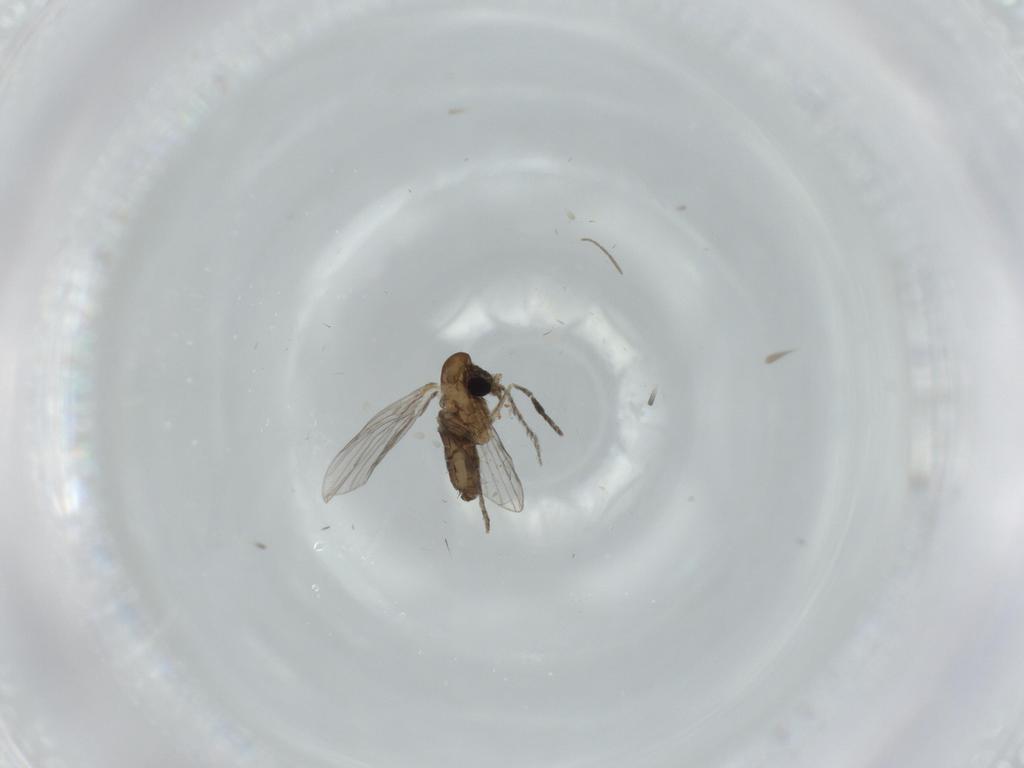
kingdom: Animalia
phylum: Arthropoda
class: Insecta
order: Diptera
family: Psychodidae
